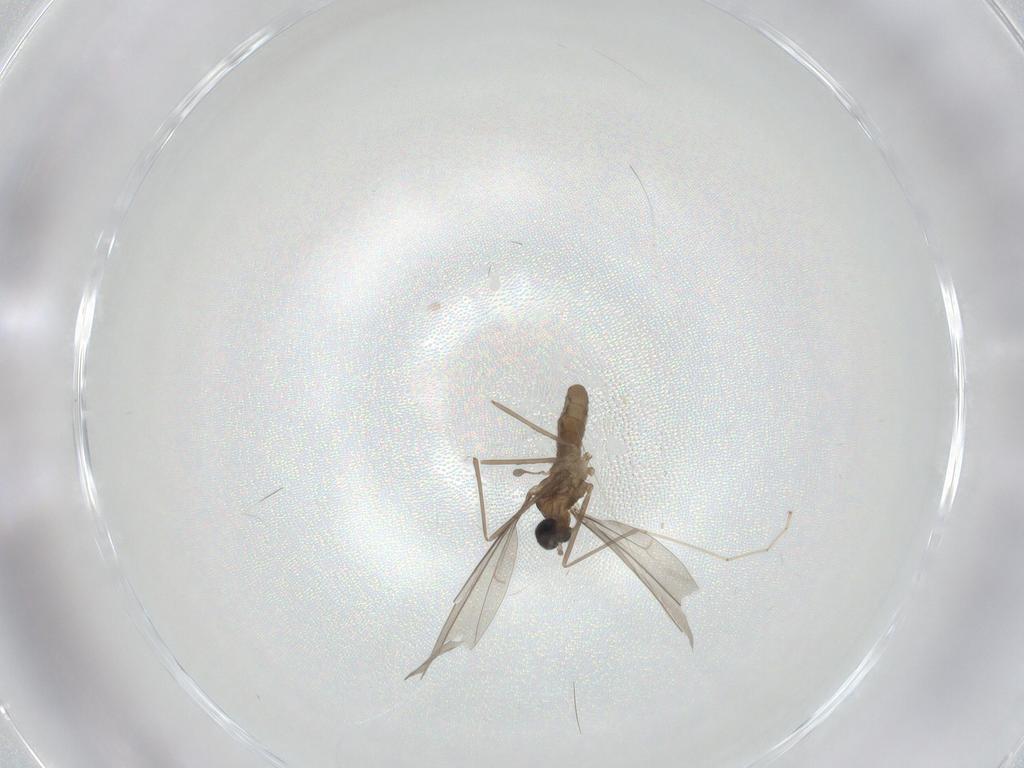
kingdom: Animalia
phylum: Arthropoda
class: Insecta
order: Diptera
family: Cecidomyiidae
